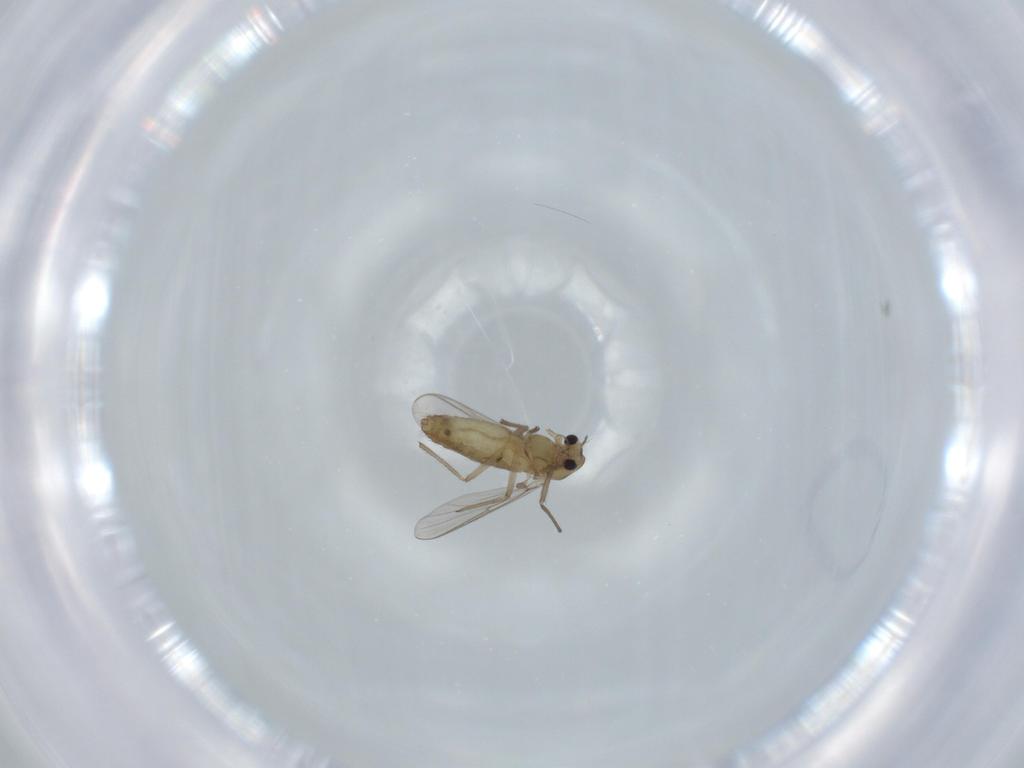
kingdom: Animalia
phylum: Arthropoda
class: Insecta
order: Diptera
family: Chironomidae
